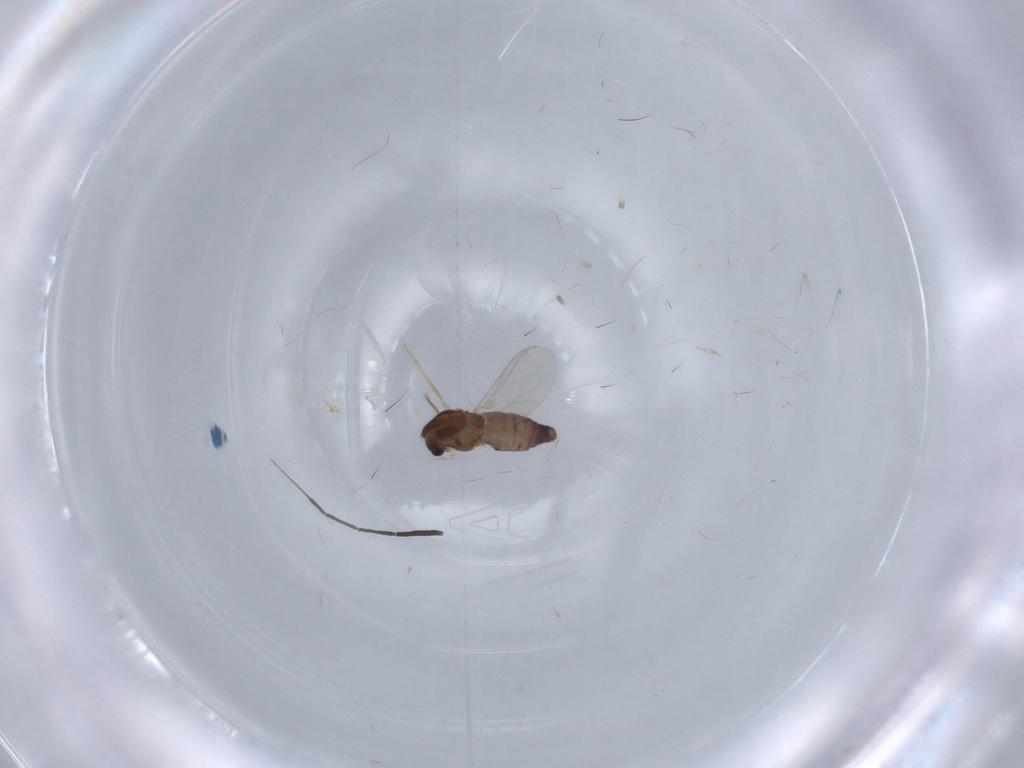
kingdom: Animalia
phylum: Arthropoda
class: Insecta
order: Diptera
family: Chironomidae
